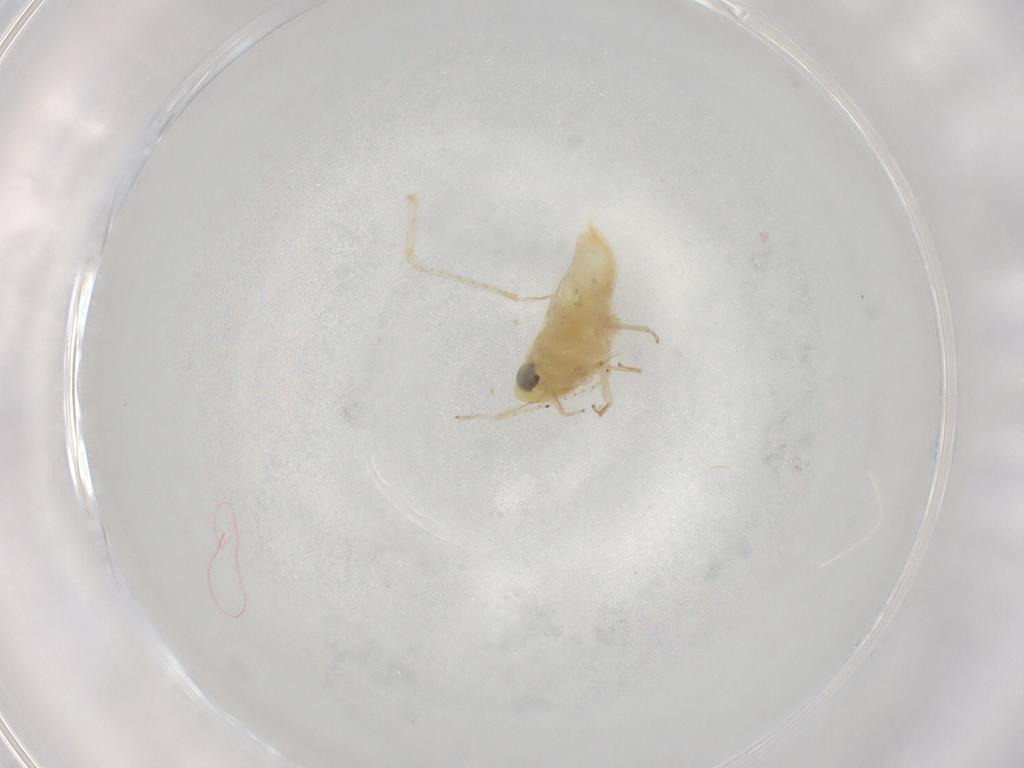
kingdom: Animalia
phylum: Arthropoda
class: Insecta
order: Hemiptera
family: Cicadellidae
